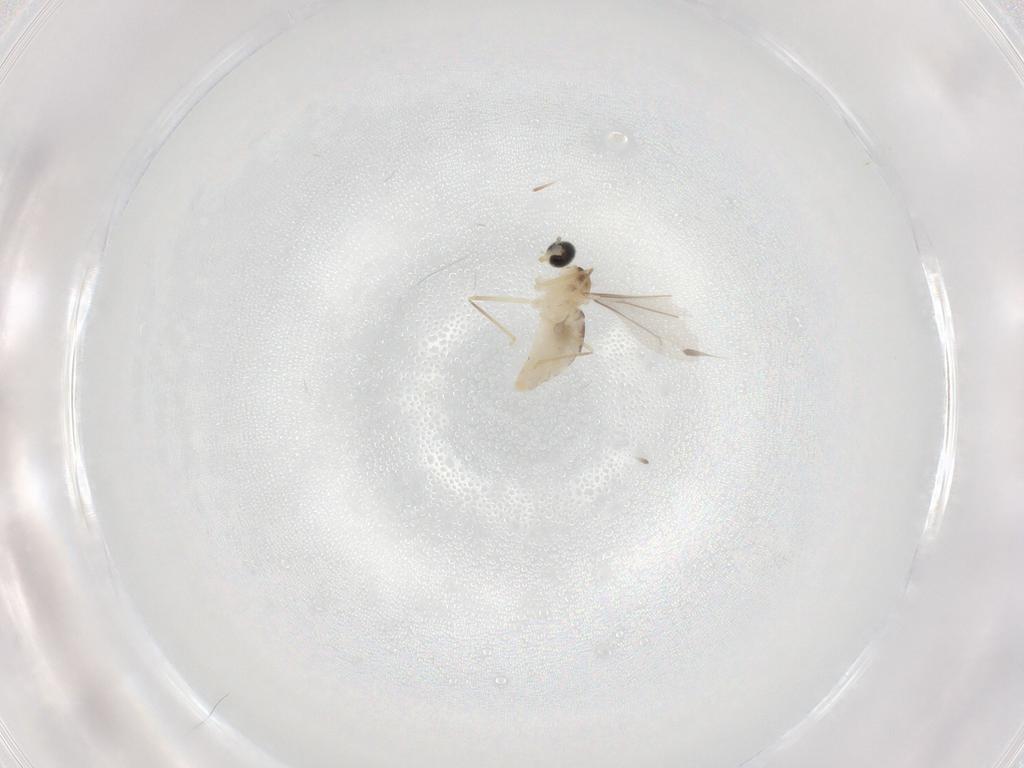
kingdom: Animalia
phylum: Arthropoda
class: Insecta
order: Diptera
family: Cecidomyiidae
